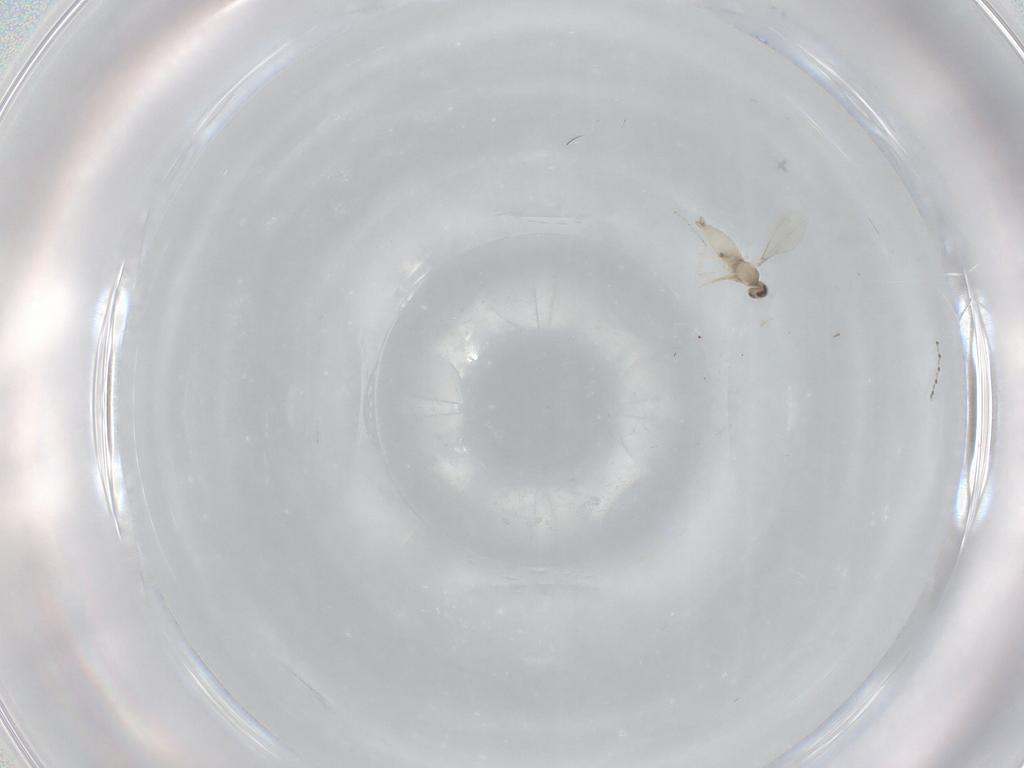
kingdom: Animalia
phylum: Arthropoda
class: Insecta
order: Diptera
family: Cecidomyiidae
